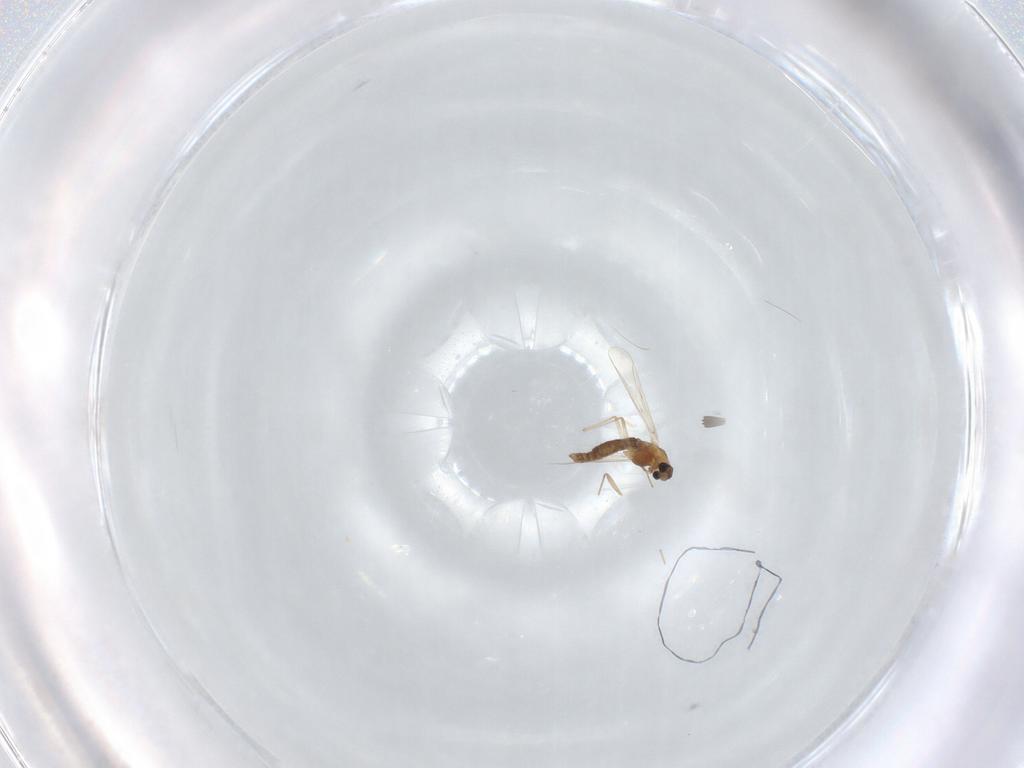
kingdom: Animalia
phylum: Arthropoda
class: Insecta
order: Diptera
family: Chironomidae
